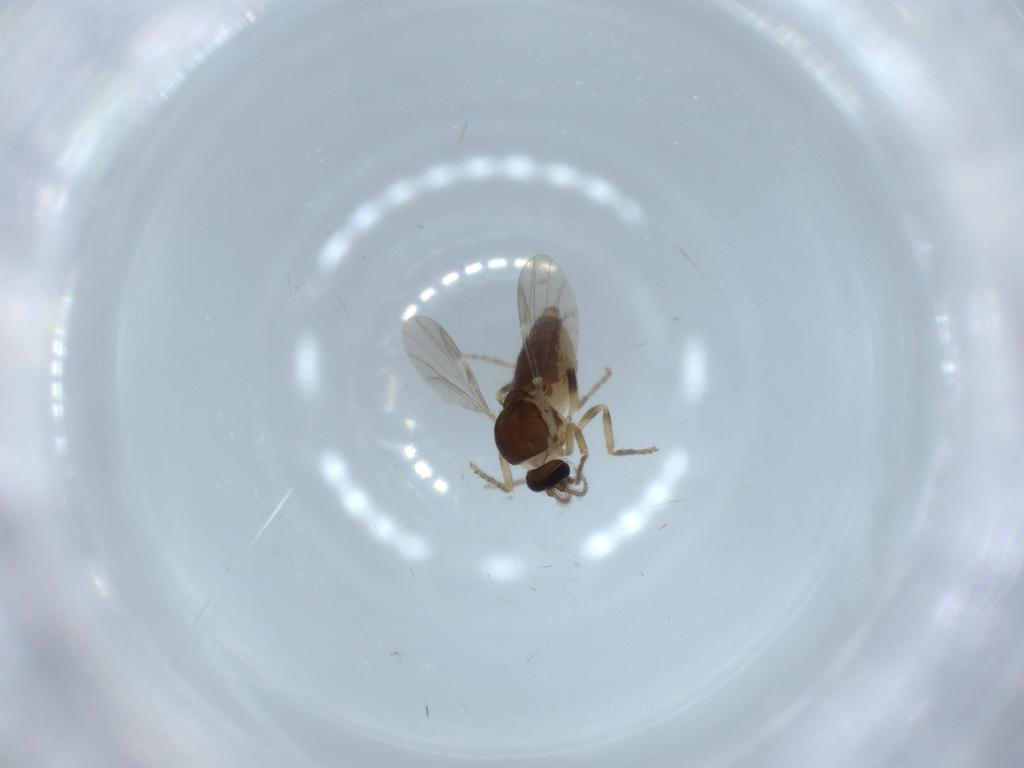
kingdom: Animalia
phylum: Arthropoda
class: Insecta
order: Diptera
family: Ceratopogonidae
